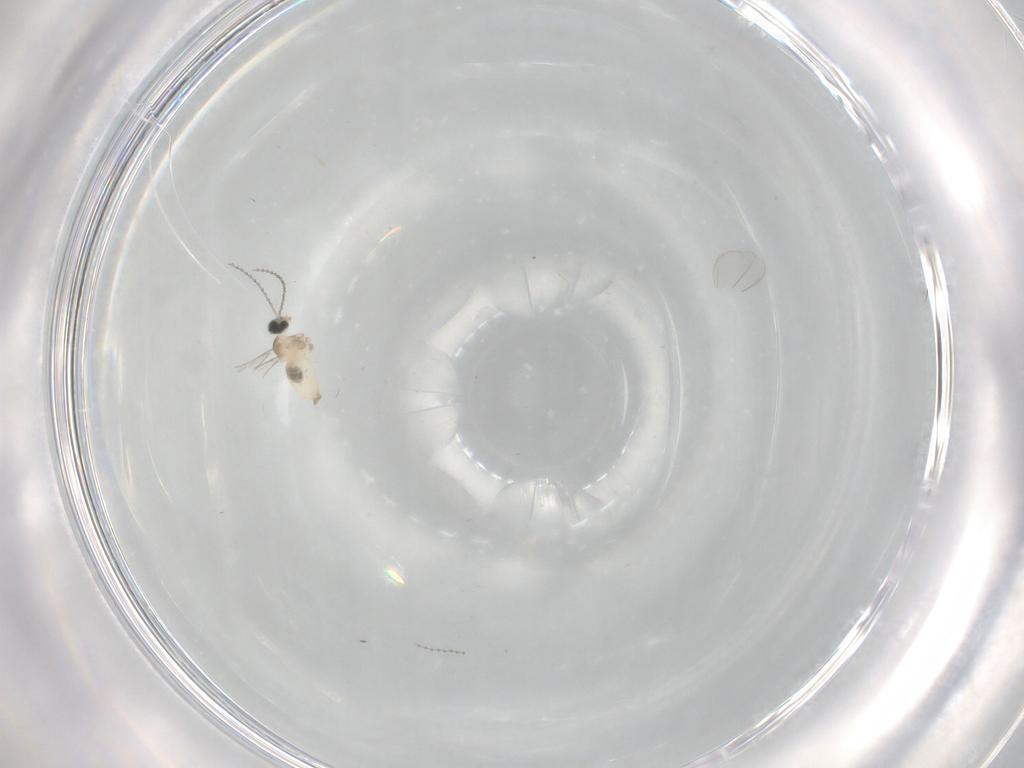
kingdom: Animalia
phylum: Arthropoda
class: Insecta
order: Diptera
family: Cecidomyiidae
